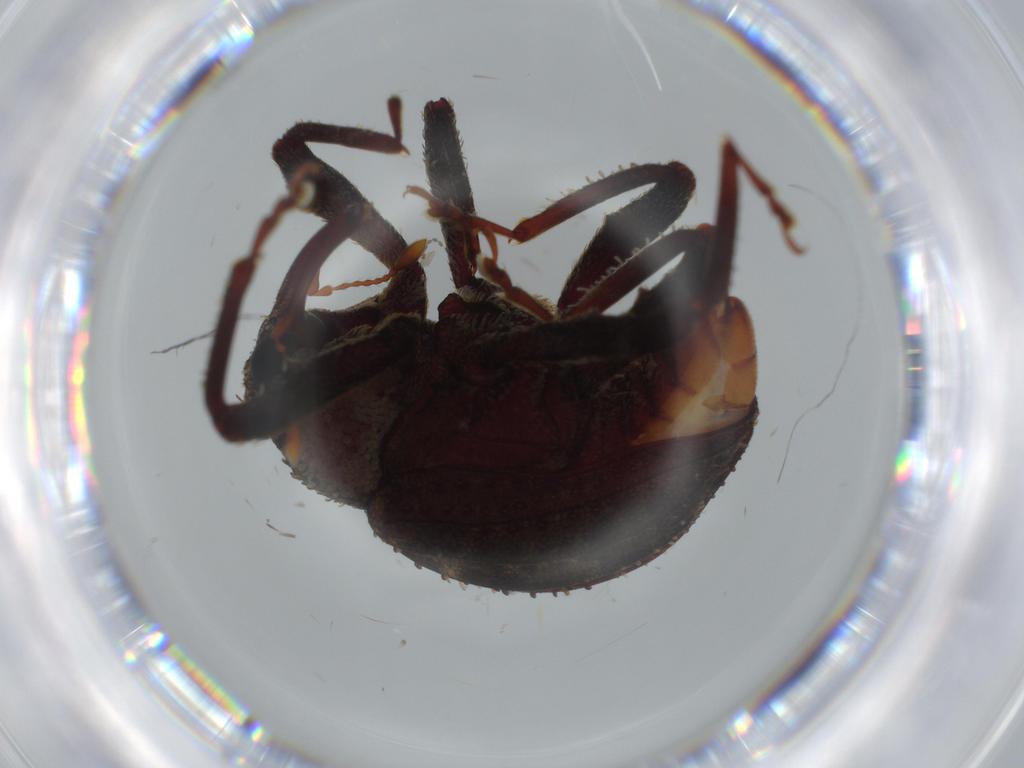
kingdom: Animalia
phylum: Arthropoda
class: Insecta
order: Coleoptera
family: Curculionidae
